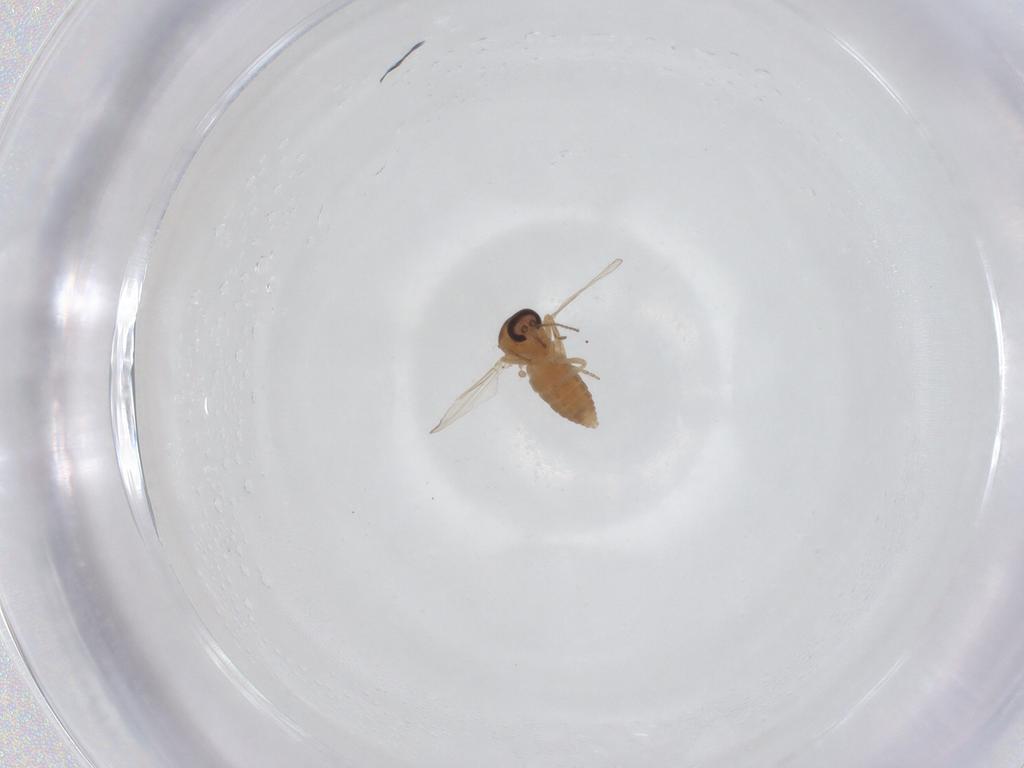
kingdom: Animalia
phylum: Arthropoda
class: Insecta
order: Diptera
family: Ceratopogonidae
